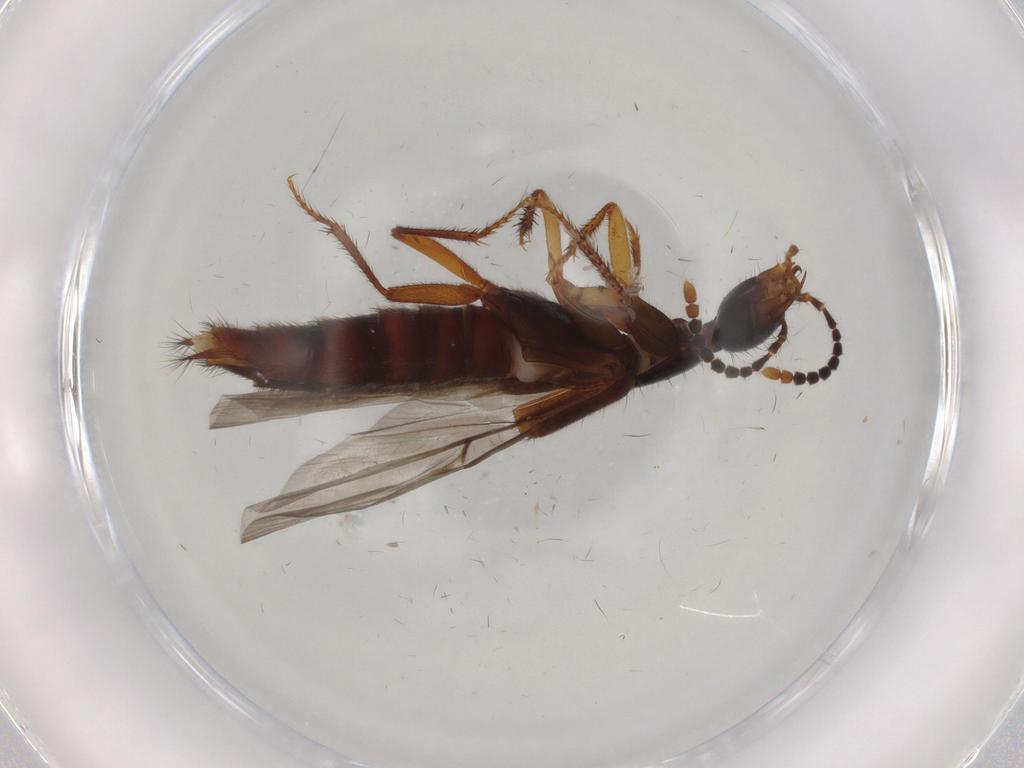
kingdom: Animalia
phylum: Arthropoda
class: Insecta
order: Coleoptera
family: Staphylinidae
